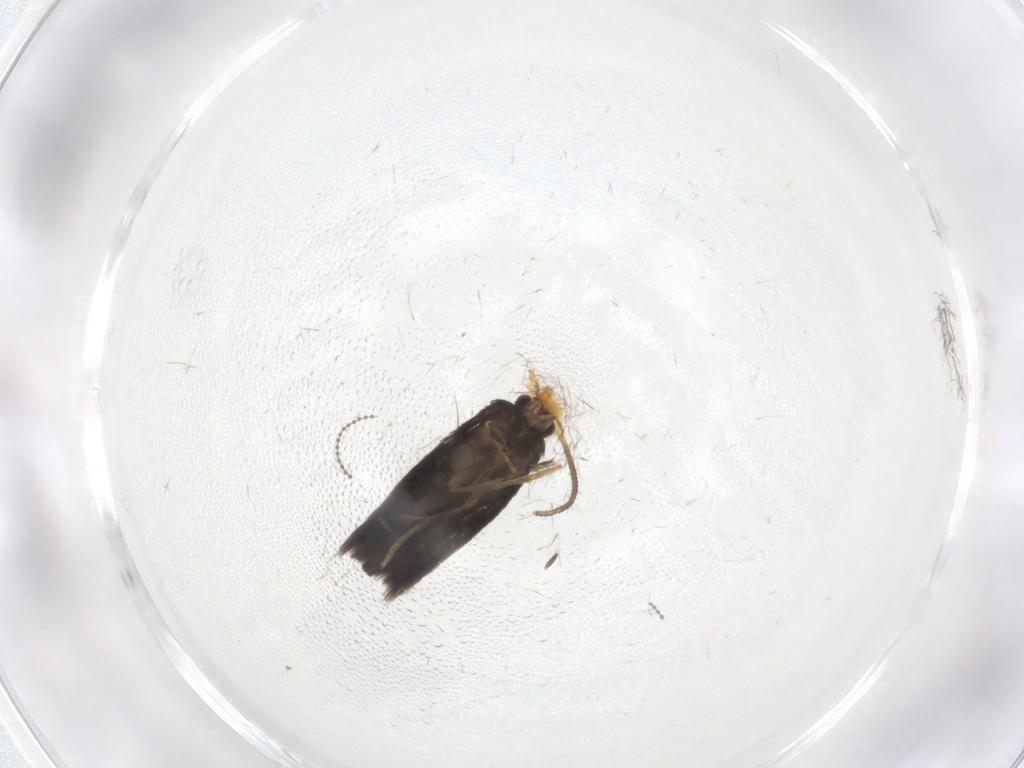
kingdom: Animalia
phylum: Arthropoda
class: Insecta
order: Lepidoptera
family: Nepticulidae
